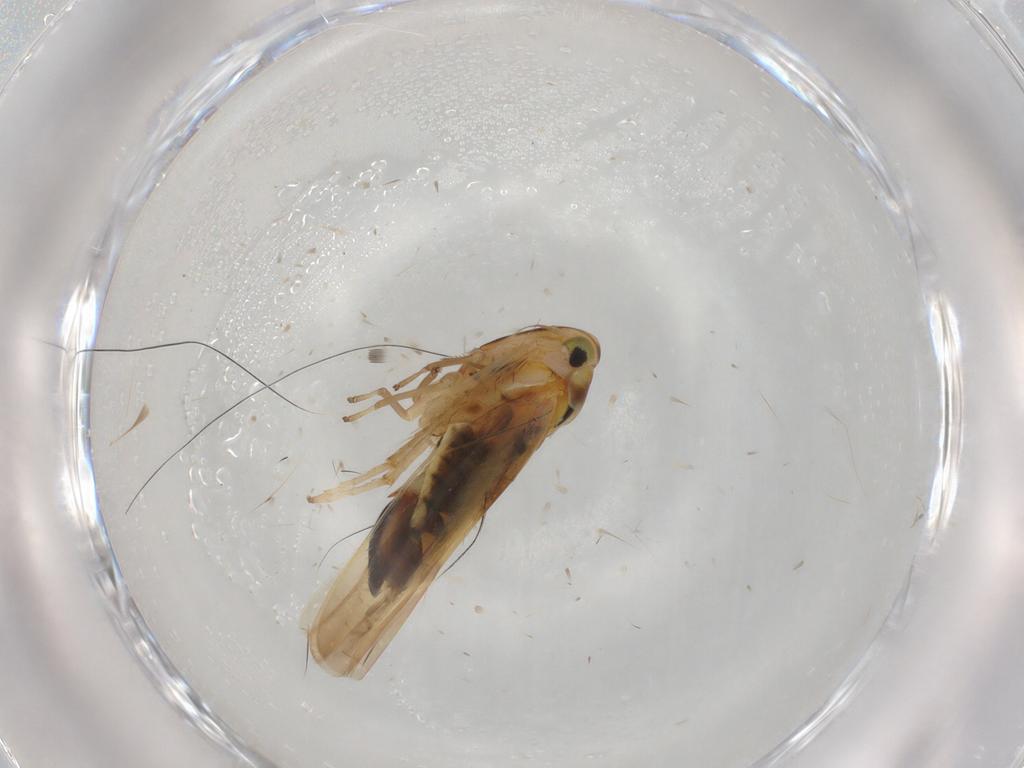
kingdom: Animalia
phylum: Arthropoda
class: Insecta
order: Hemiptera
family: Cicadellidae
